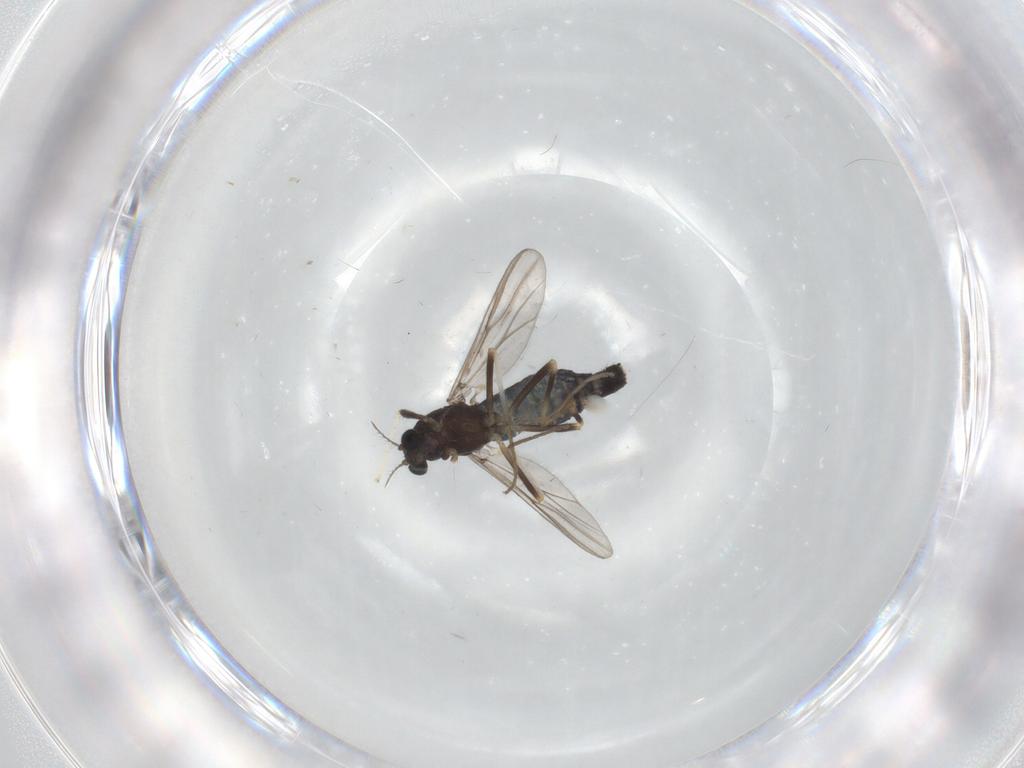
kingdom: Animalia
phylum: Arthropoda
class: Insecta
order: Diptera
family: Chironomidae
